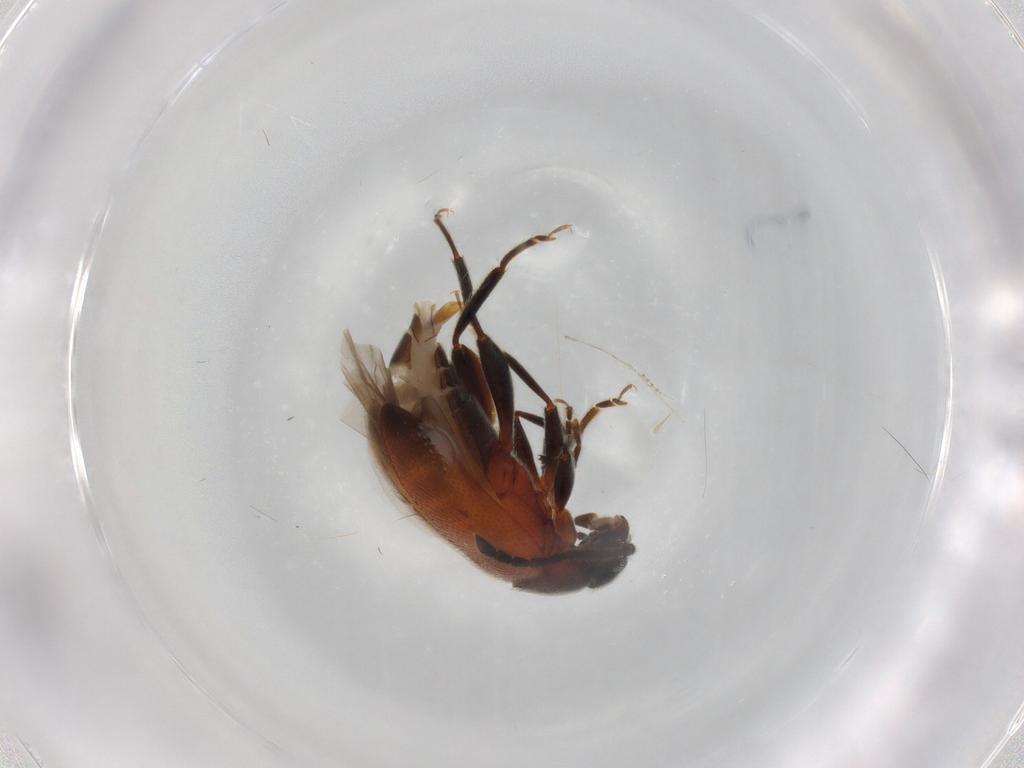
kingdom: Animalia
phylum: Arthropoda
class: Insecta
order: Coleoptera
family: Aderidae
